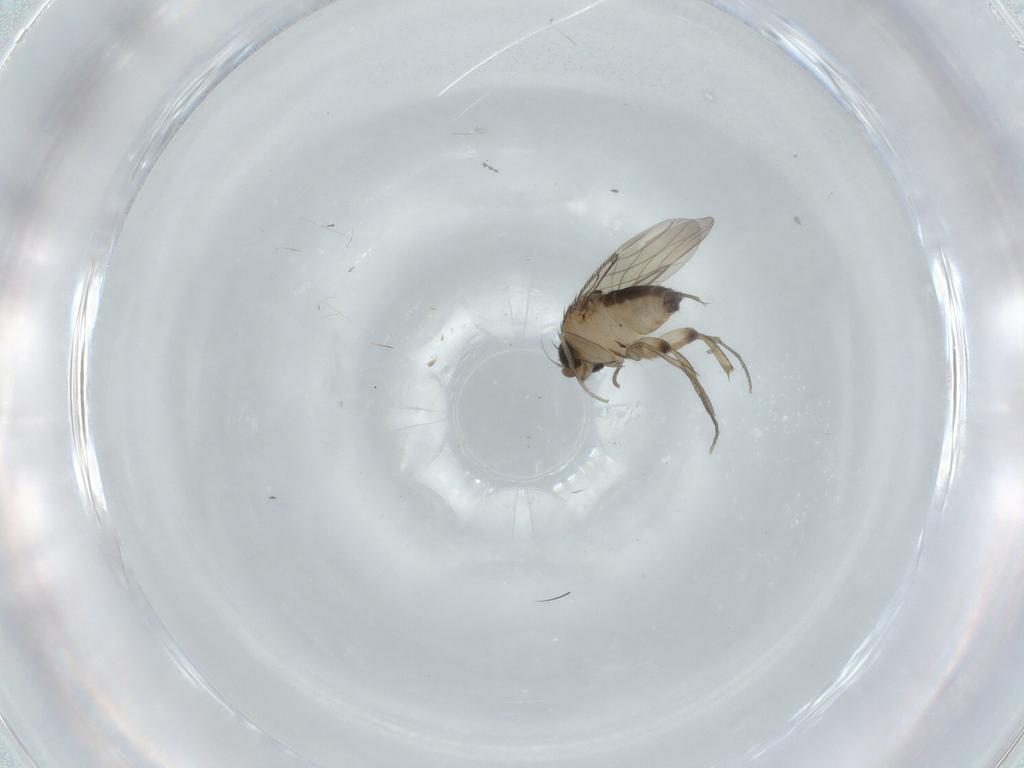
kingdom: Animalia
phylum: Arthropoda
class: Insecta
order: Diptera
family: Phoridae
